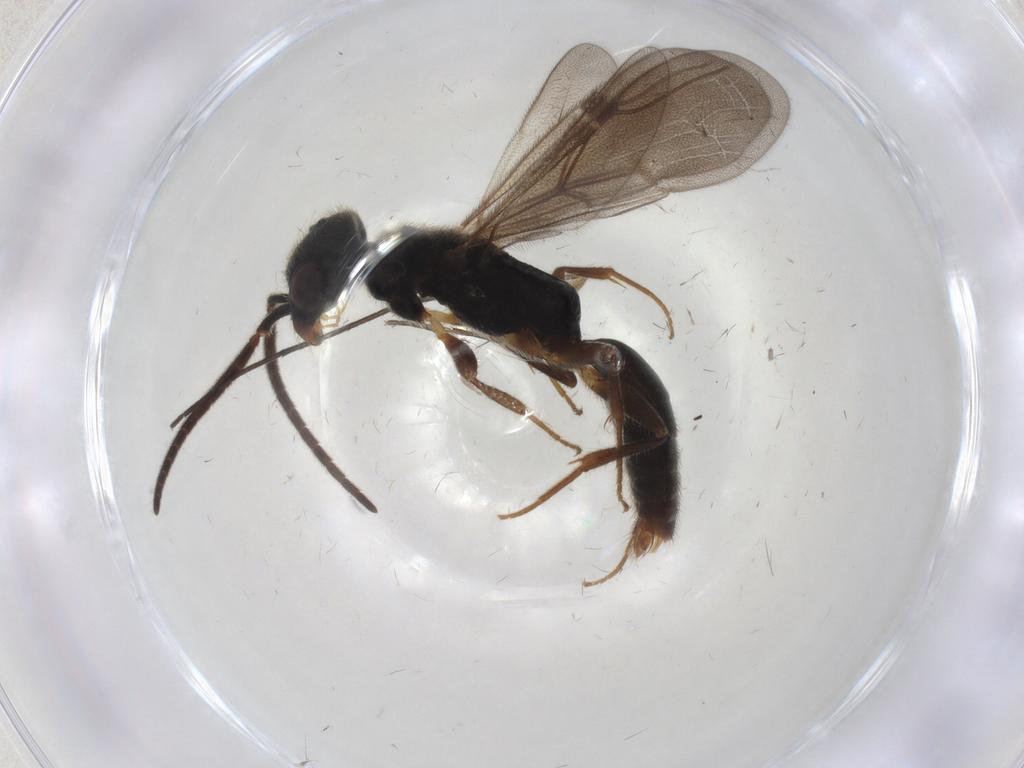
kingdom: Animalia
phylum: Arthropoda
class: Insecta
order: Hymenoptera
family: Bethylidae
